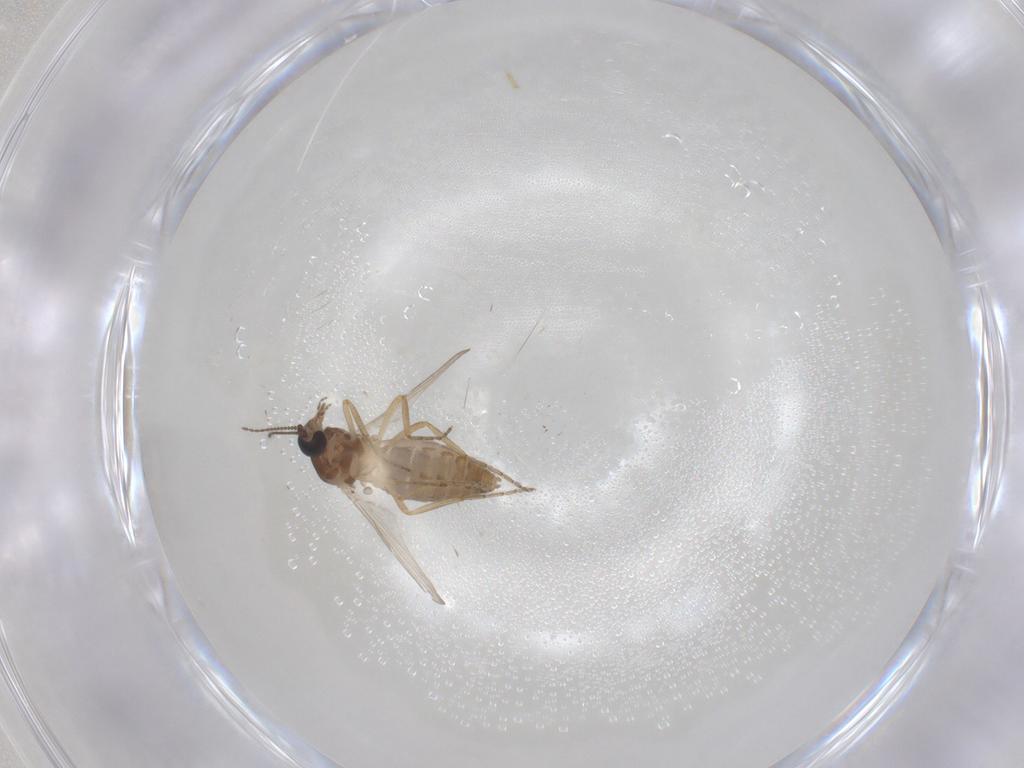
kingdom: Animalia
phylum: Arthropoda
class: Insecta
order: Diptera
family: Ceratopogonidae
